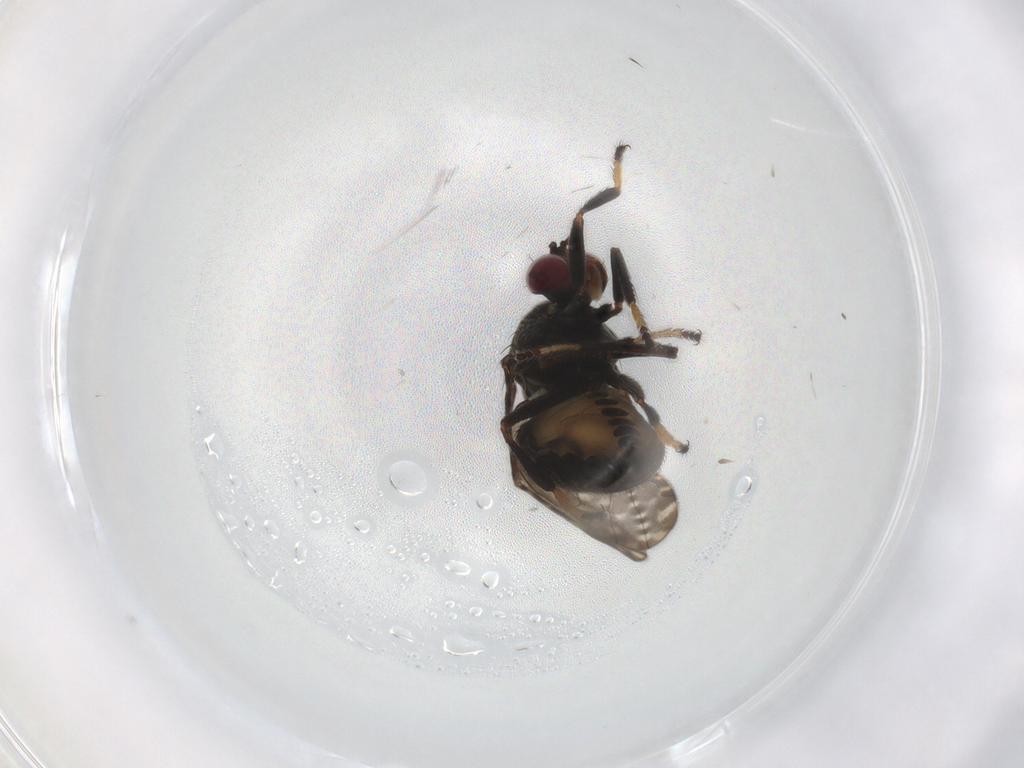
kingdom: Animalia
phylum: Arthropoda
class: Insecta
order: Diptera
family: Ephydridae
